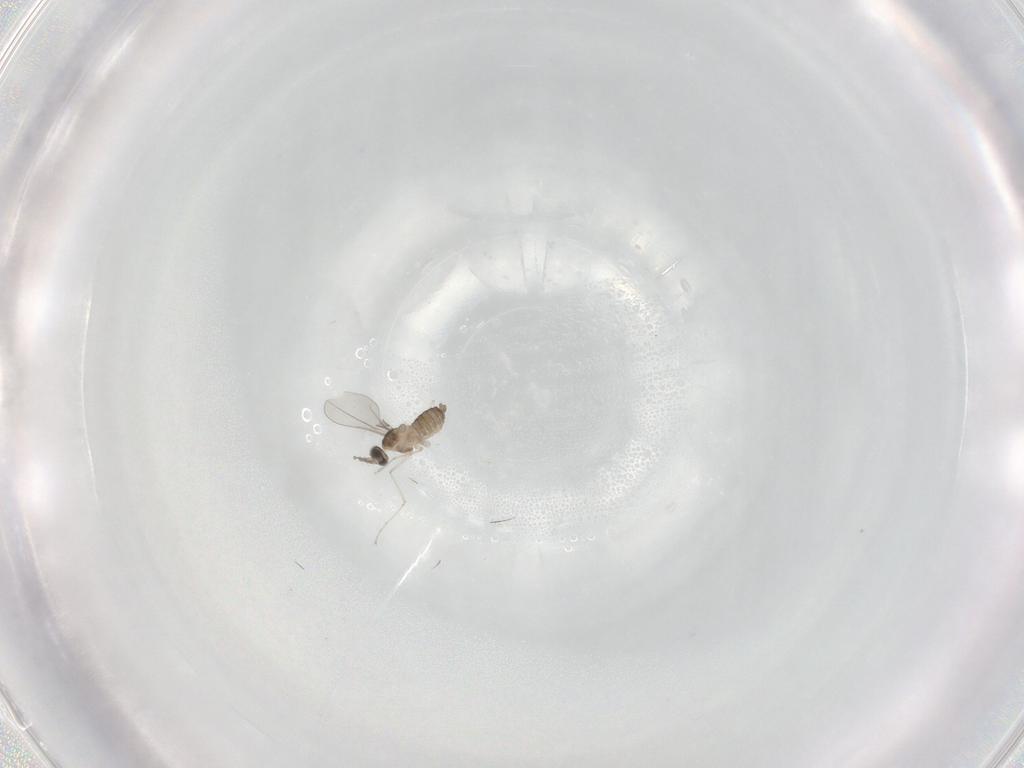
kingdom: Animalia
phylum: Arthropoda
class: Insecta
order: Diptera
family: Cecidomyiidae
